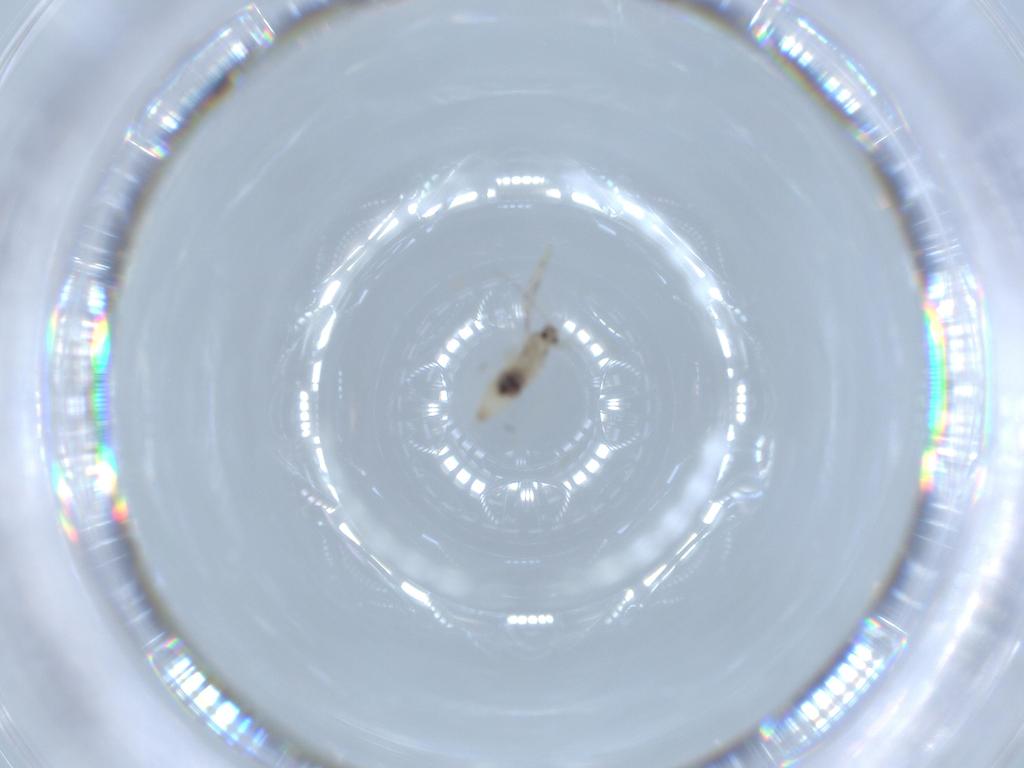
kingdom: Animalia
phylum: Arthropoda
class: Insecta
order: Diptera
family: Cecidomyiidae
